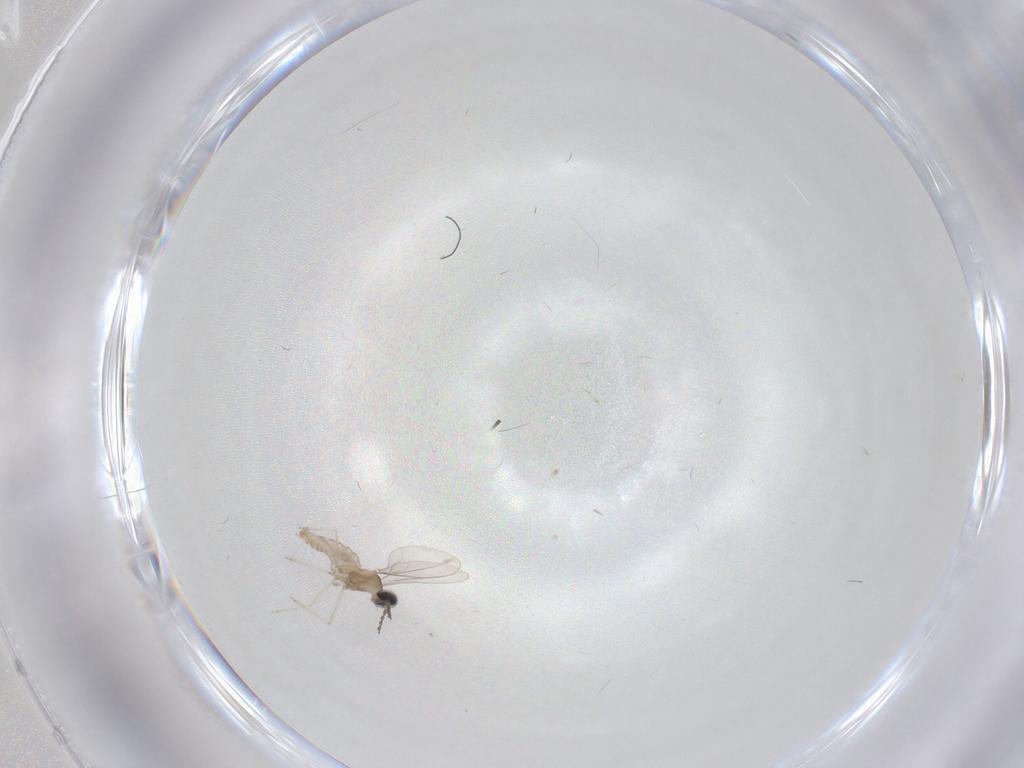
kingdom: Animalia
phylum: Arthropoda
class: Insecta
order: Diptera
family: Cecidomyiidae
